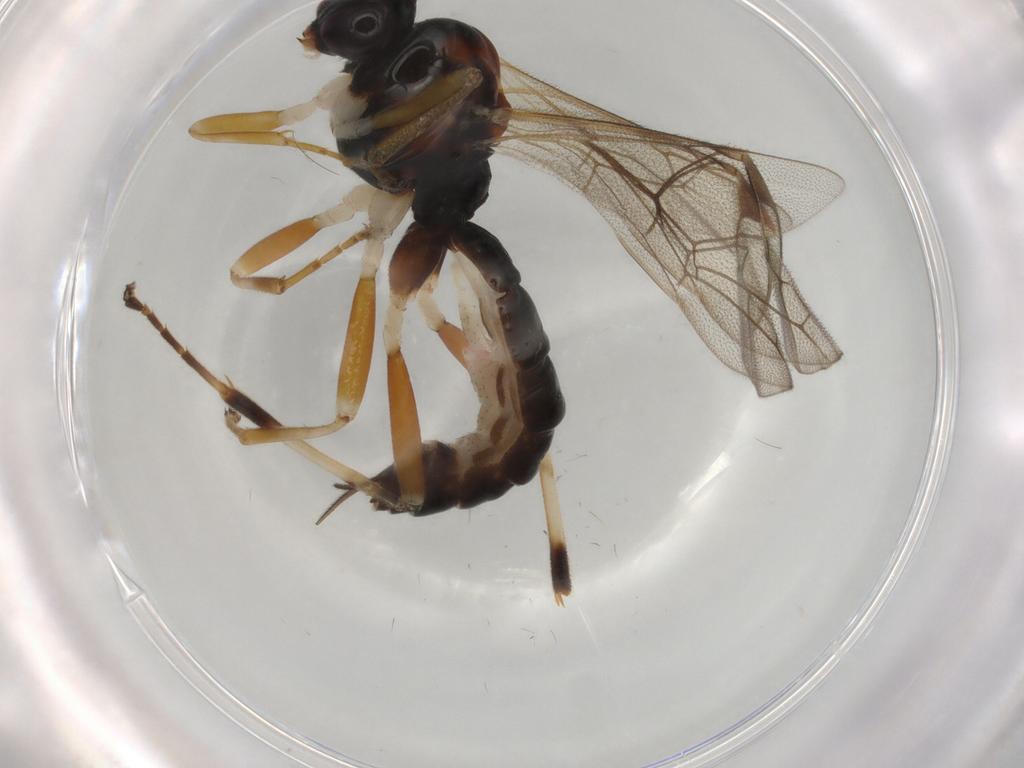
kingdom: Animalia
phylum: Arthropoda
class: Insecta
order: Hymenoptera
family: Ichneumonidae
